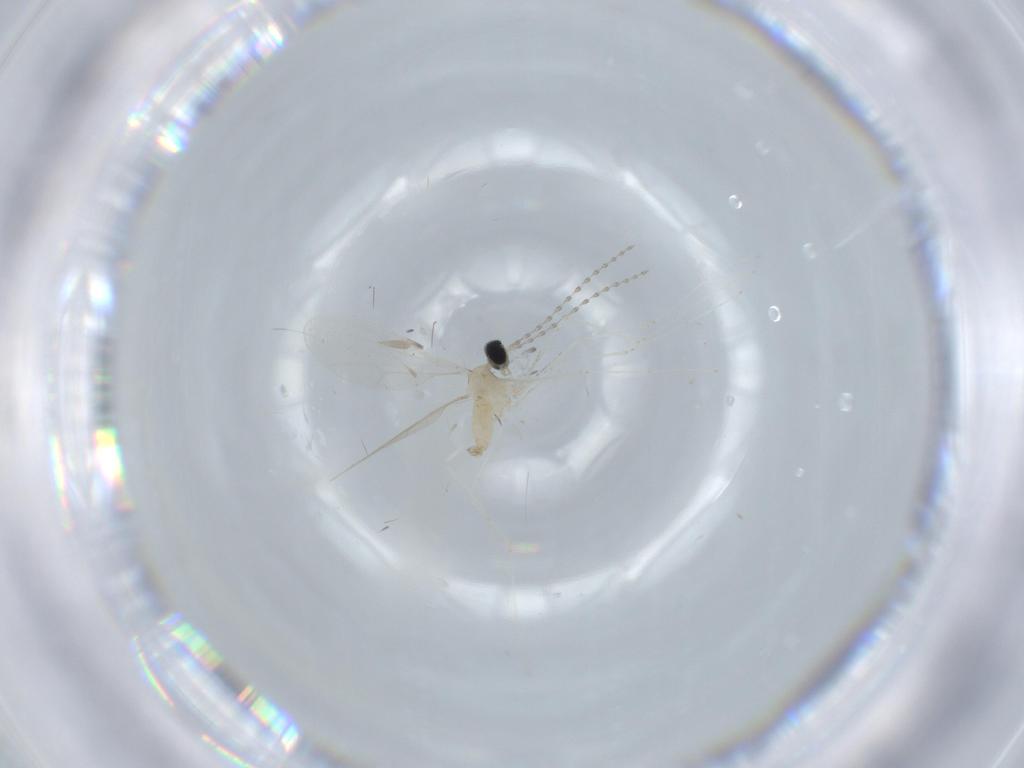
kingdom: Animalia
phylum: Arthropoda
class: Insecta
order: Diptera
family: Cecidomyiidae
